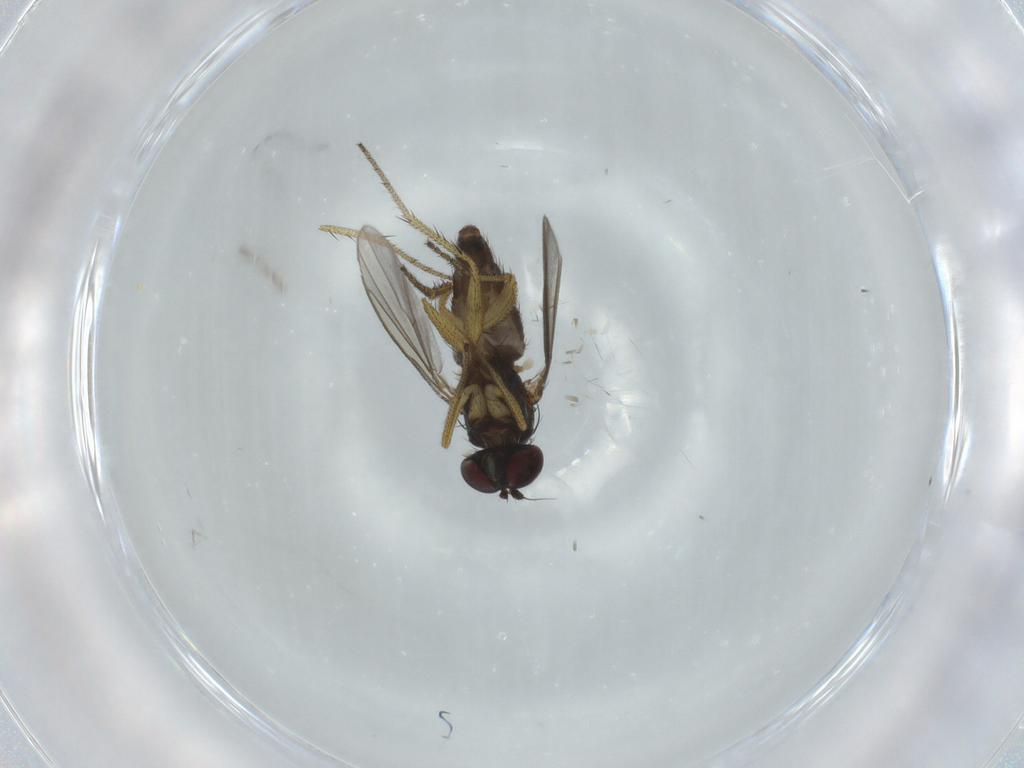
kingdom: Animalia
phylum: Arthropoda
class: Insecta
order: Diptera
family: Dolichopodidae
